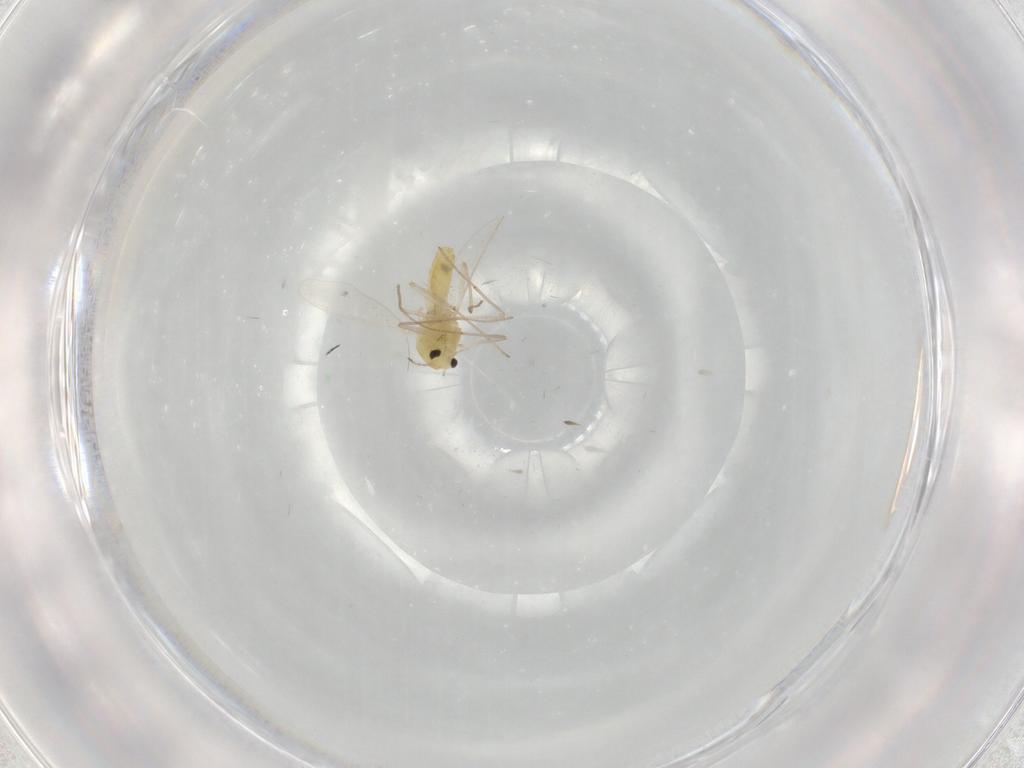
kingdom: Animalia
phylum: Arthropoda
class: Insecta
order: Diptera
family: Chironomidae
